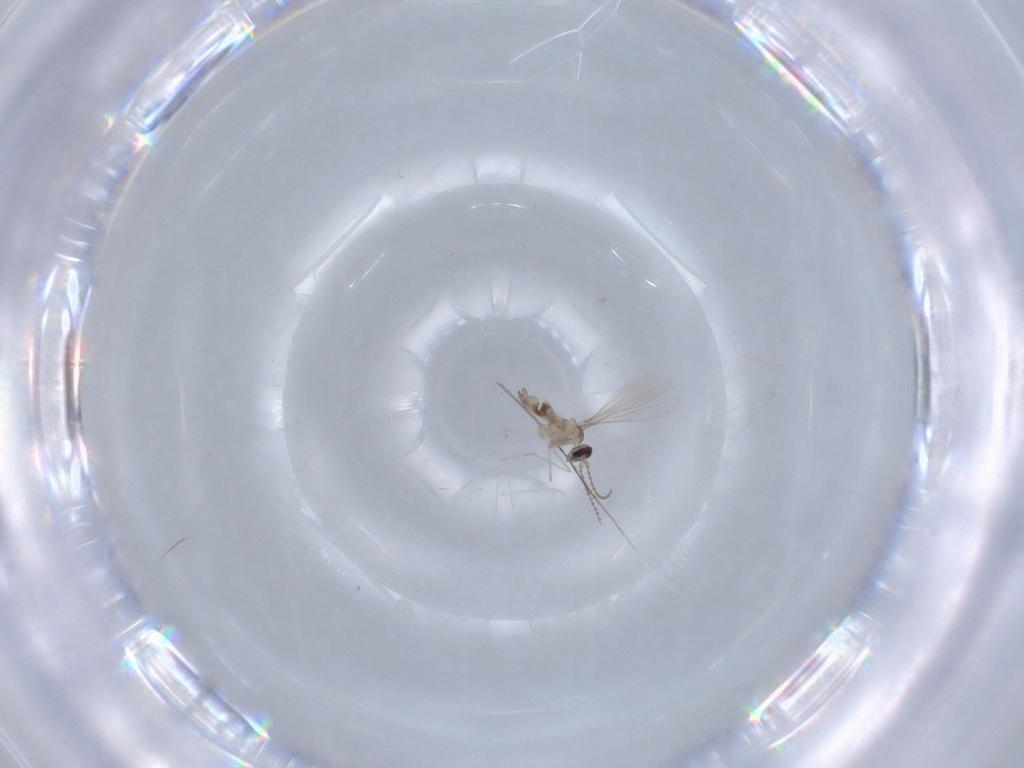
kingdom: Animalia
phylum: Arthropoda
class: Insecta
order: Diptera
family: Cecidomyiidae
